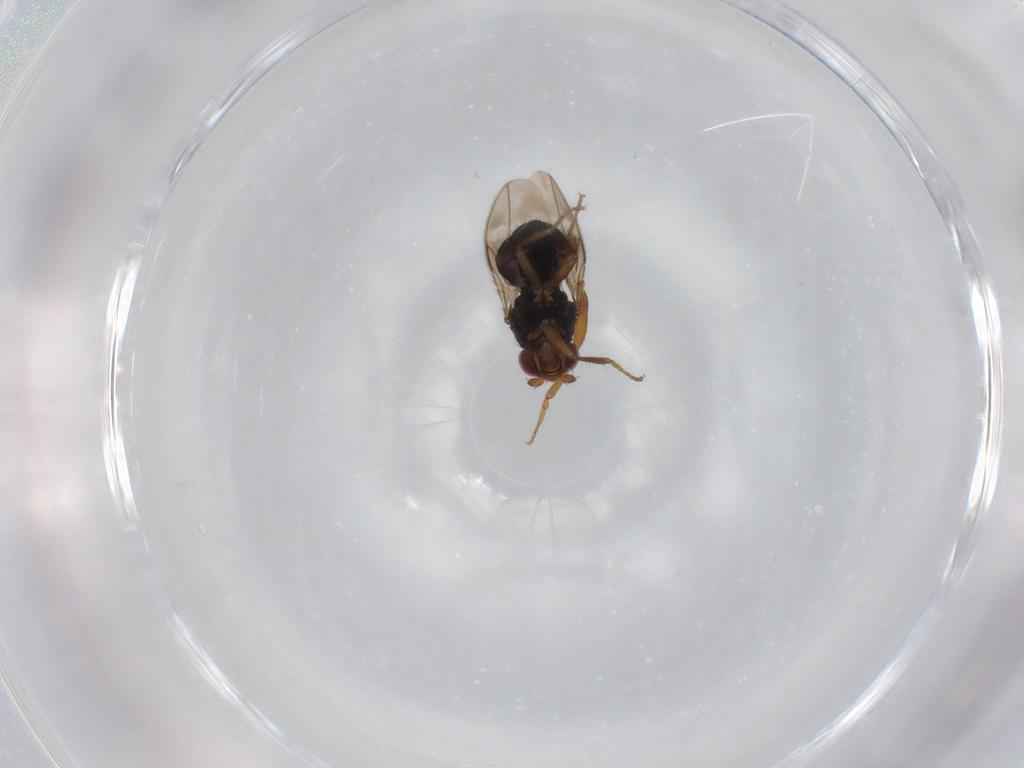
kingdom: Animalia
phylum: Arthropoda
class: Insecta
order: Diptera
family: Sphaeroceridae
